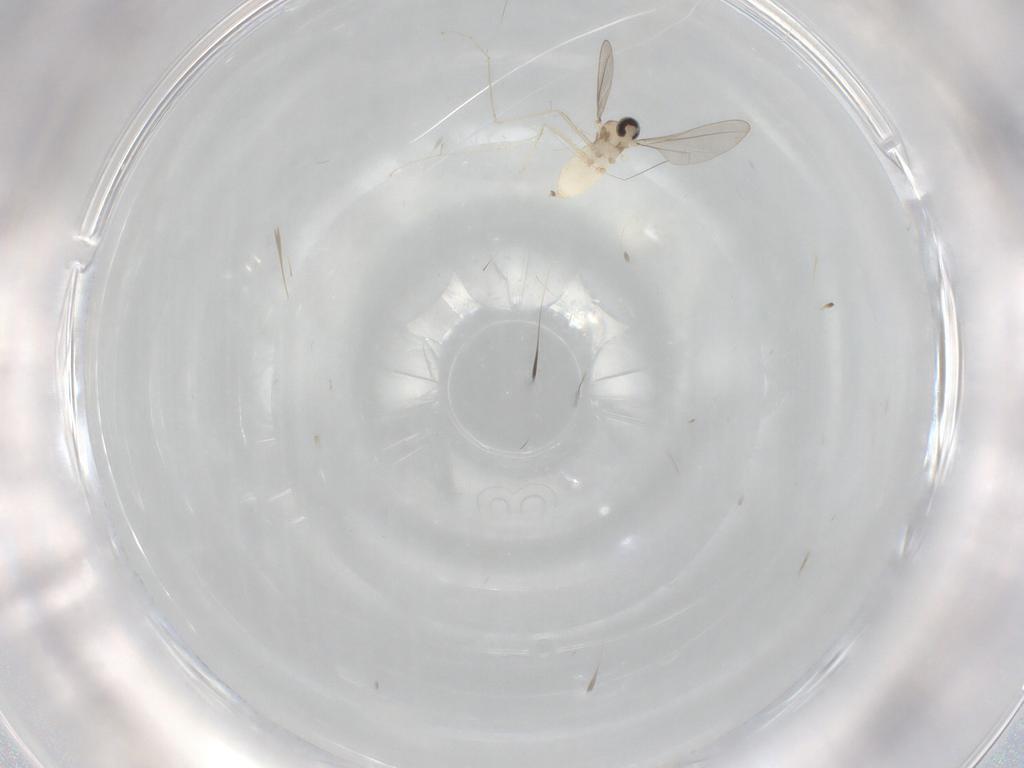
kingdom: Animalia
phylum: Arthropoda
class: Insecta
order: Diptera
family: Cecidomyiidae
